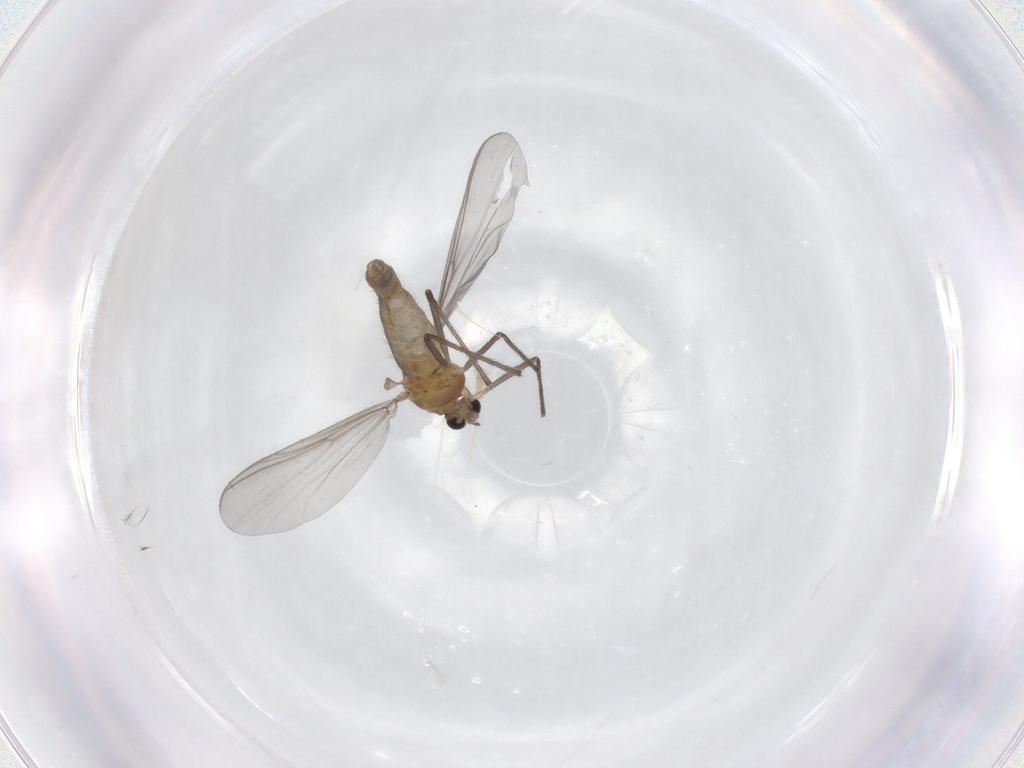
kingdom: Animalia
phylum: Arthropoda
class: Insecta
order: Diptera
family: Chironomidae
